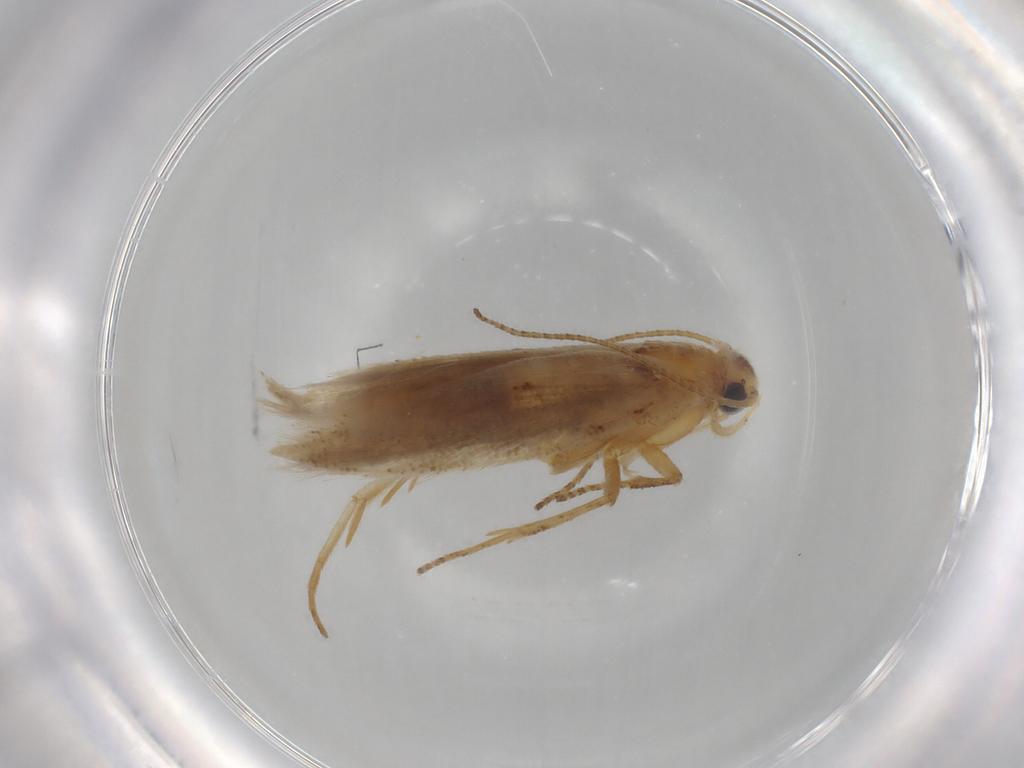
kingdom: Animalia
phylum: Arthropoda
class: Insecta
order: Lepidoptera
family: Gelechiidae
